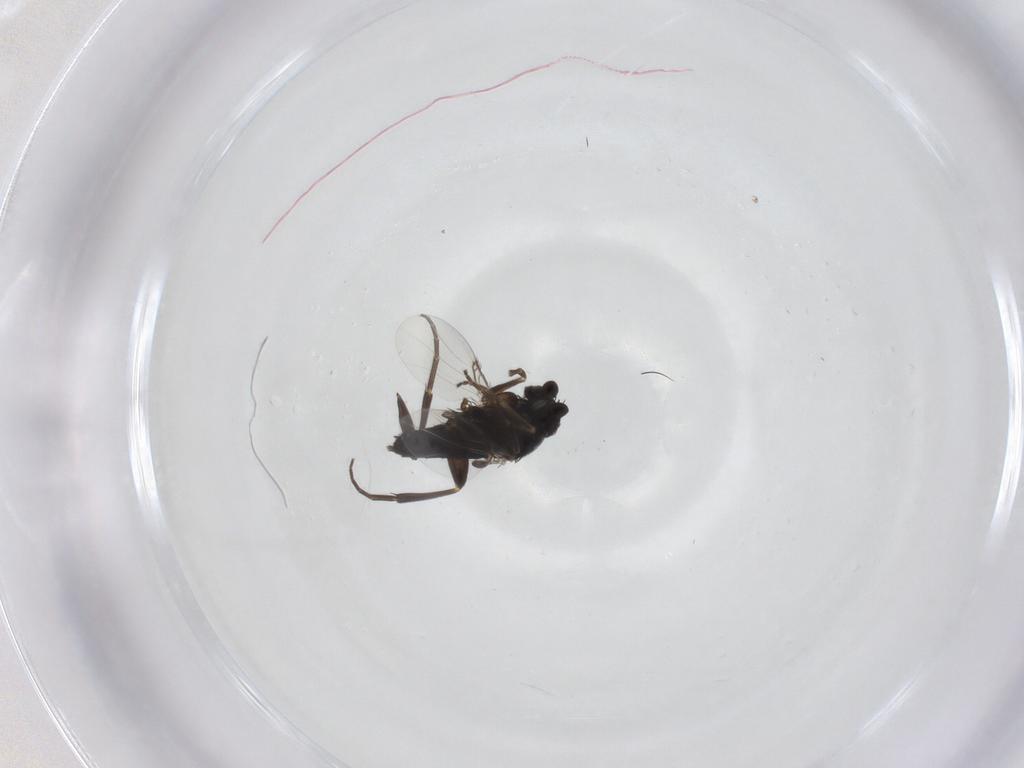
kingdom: Animalia
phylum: Arthropoda
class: Insecta
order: Diptera
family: Phoridae
